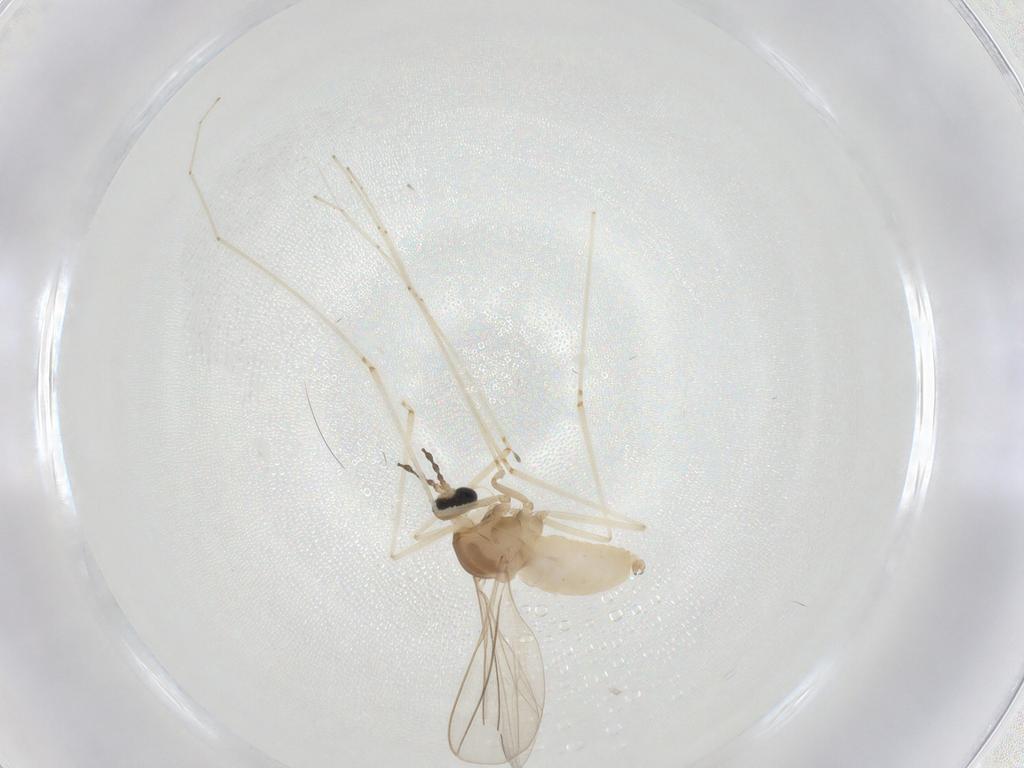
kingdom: Animalia
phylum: Arthropoda
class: Insecta
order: Diptera
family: Cecidomyiidae
